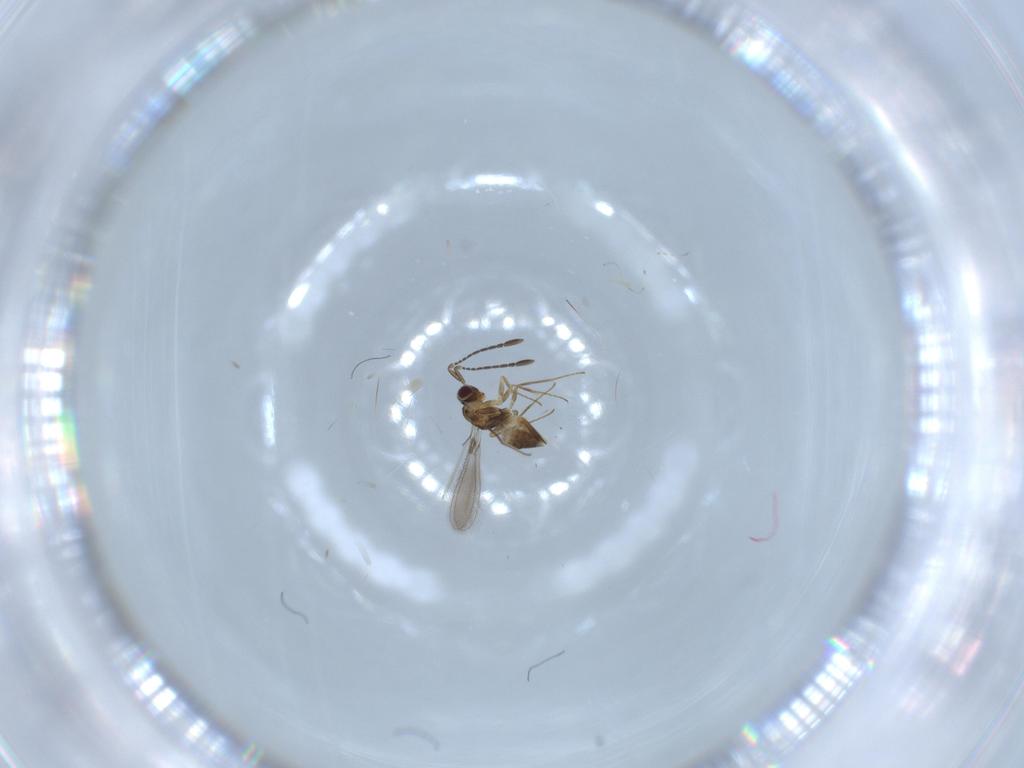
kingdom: Animalia
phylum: Arthropoda
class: Insecta
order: Hymenoptera
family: Mymaridae
